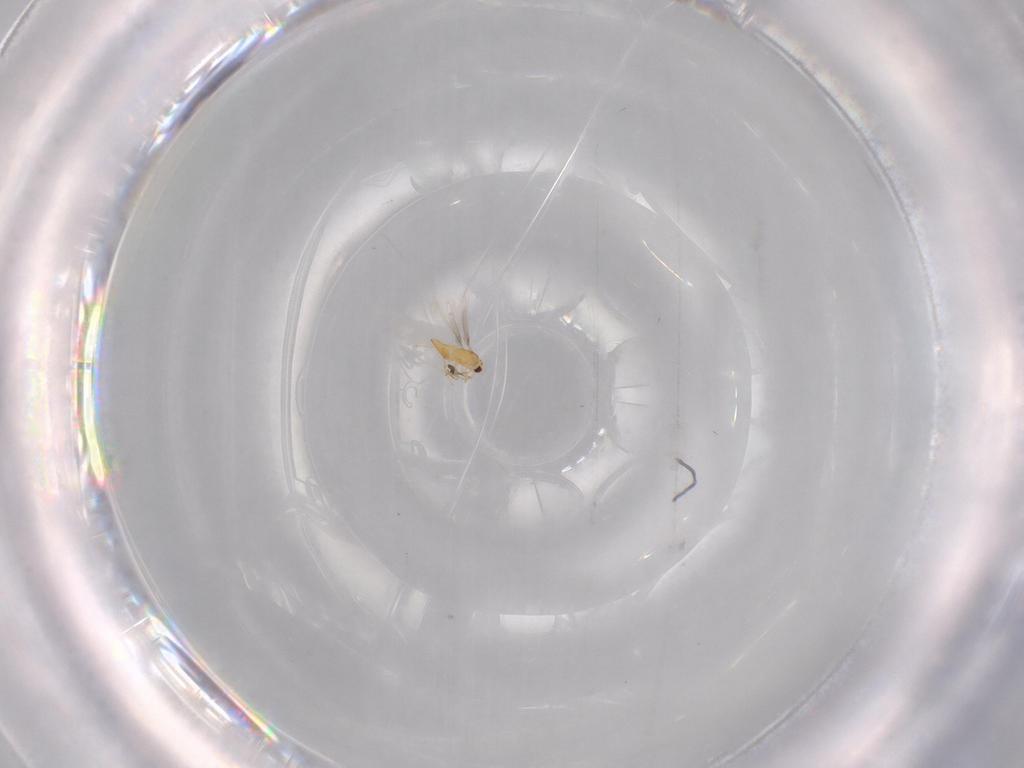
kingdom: Animalia
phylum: Arthropoda
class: Insecta
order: Hymenoptera
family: Mymaridae
